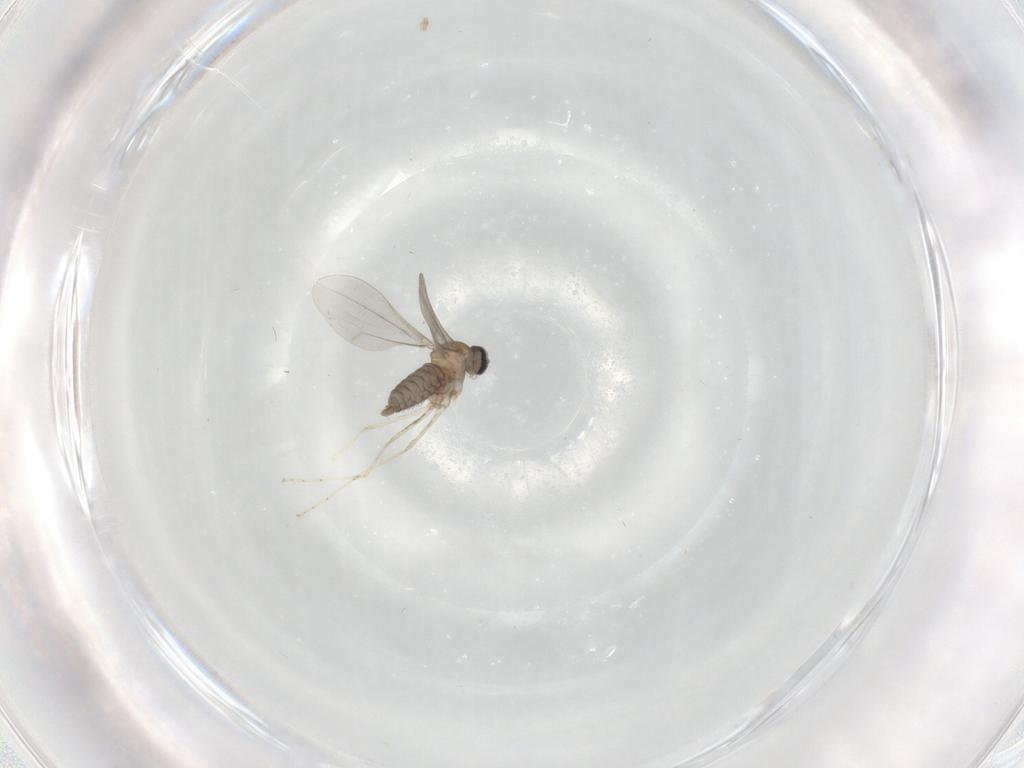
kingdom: Animalia
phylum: Arthropoda
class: Insecta
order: Diptera
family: Cecidomyiidae
